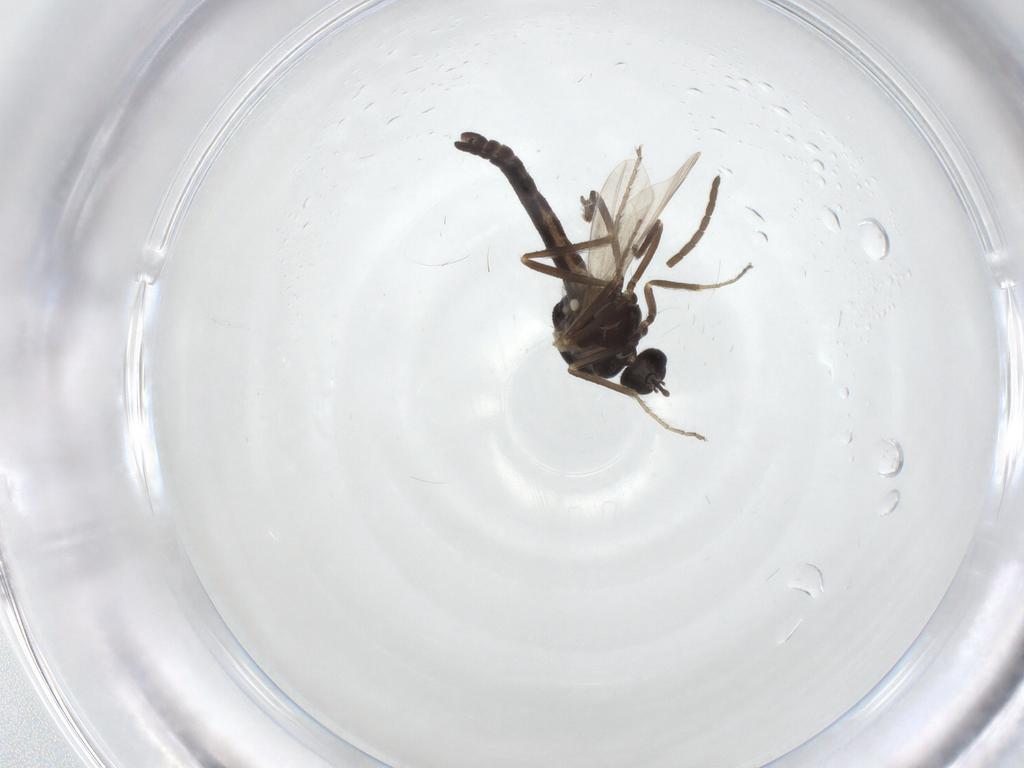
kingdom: Animalia
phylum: Arthropoda
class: Insecta
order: Diptera
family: Ceratopogonidae
